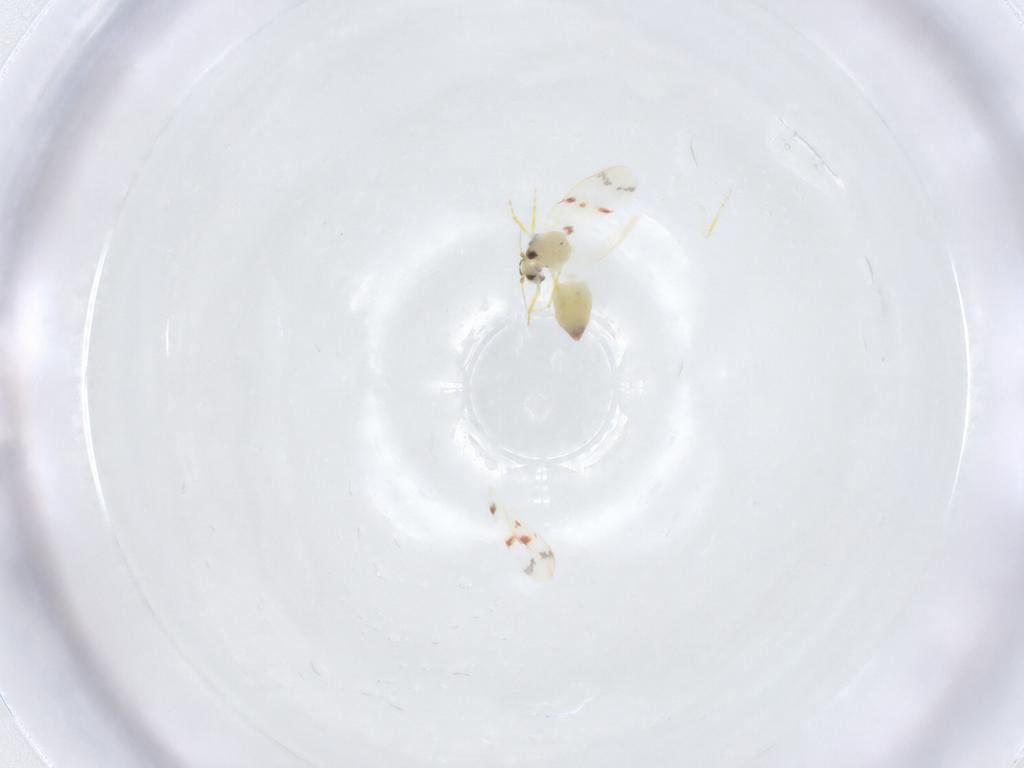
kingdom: Animalia
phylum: Arthropoda
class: Insecta
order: Hemiptera
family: Aleyrodidae
